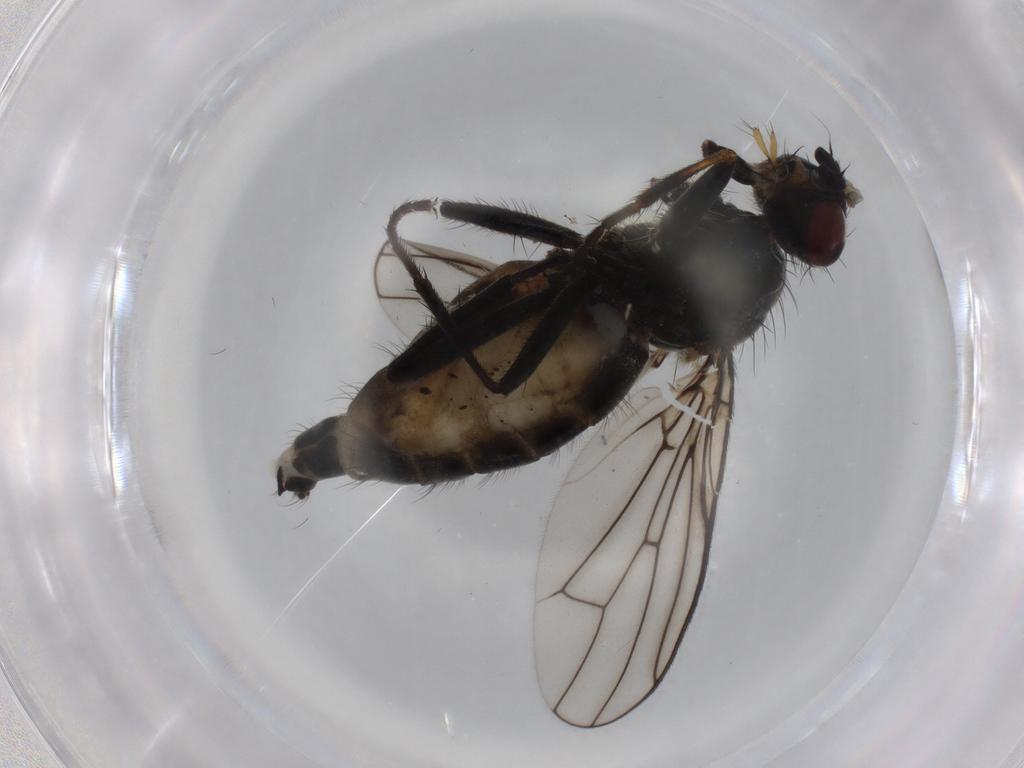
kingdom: Animalia
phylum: Arthropoda
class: Insecta
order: Diptera
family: Scathophagidae
